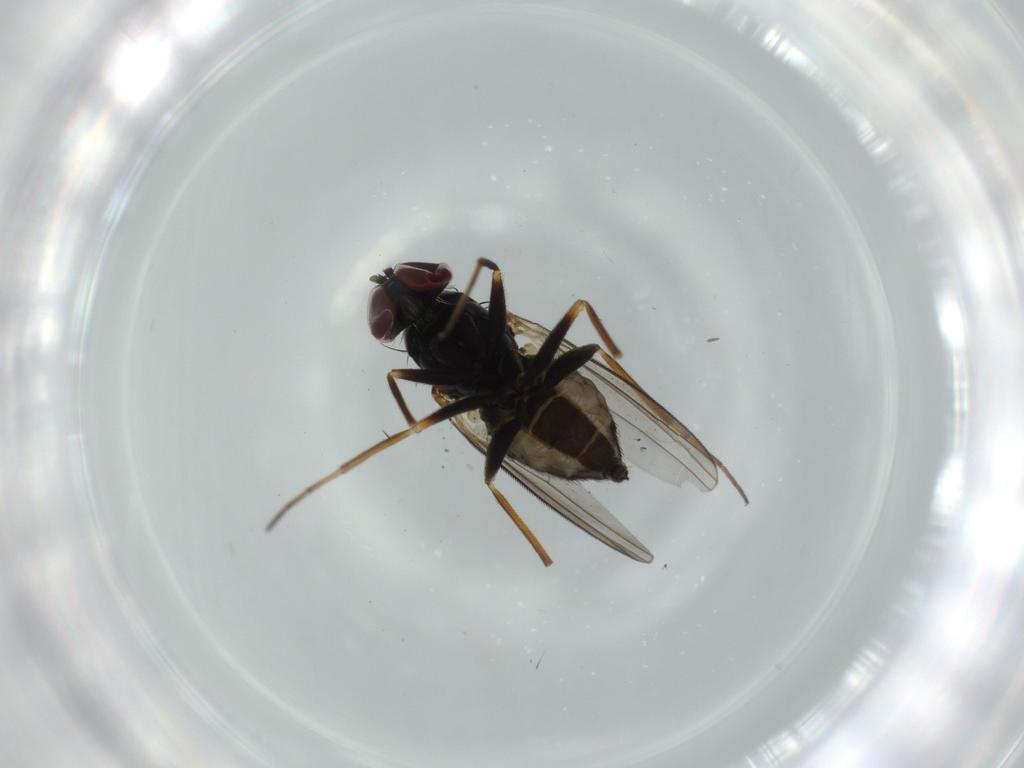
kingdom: Animalia
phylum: Arthropoda
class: Insecta
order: Diptera
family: Dolichopodidae
